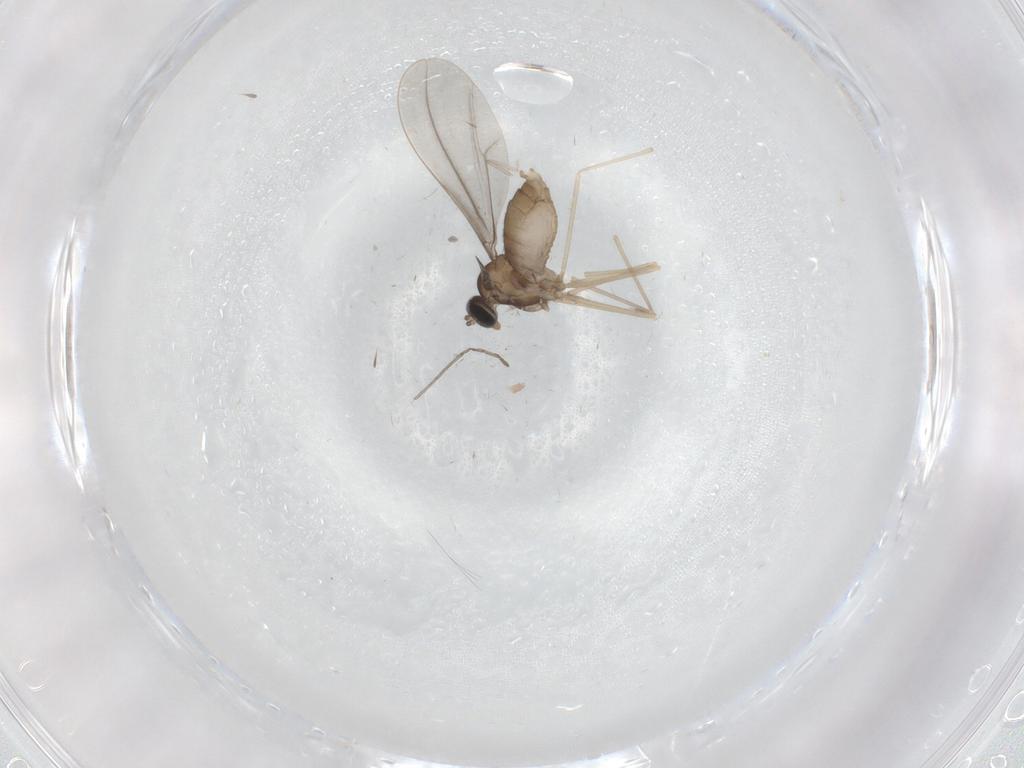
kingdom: Animalia
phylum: Arthropoda
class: Insecta
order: Diptera
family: Cecidomyiidae
